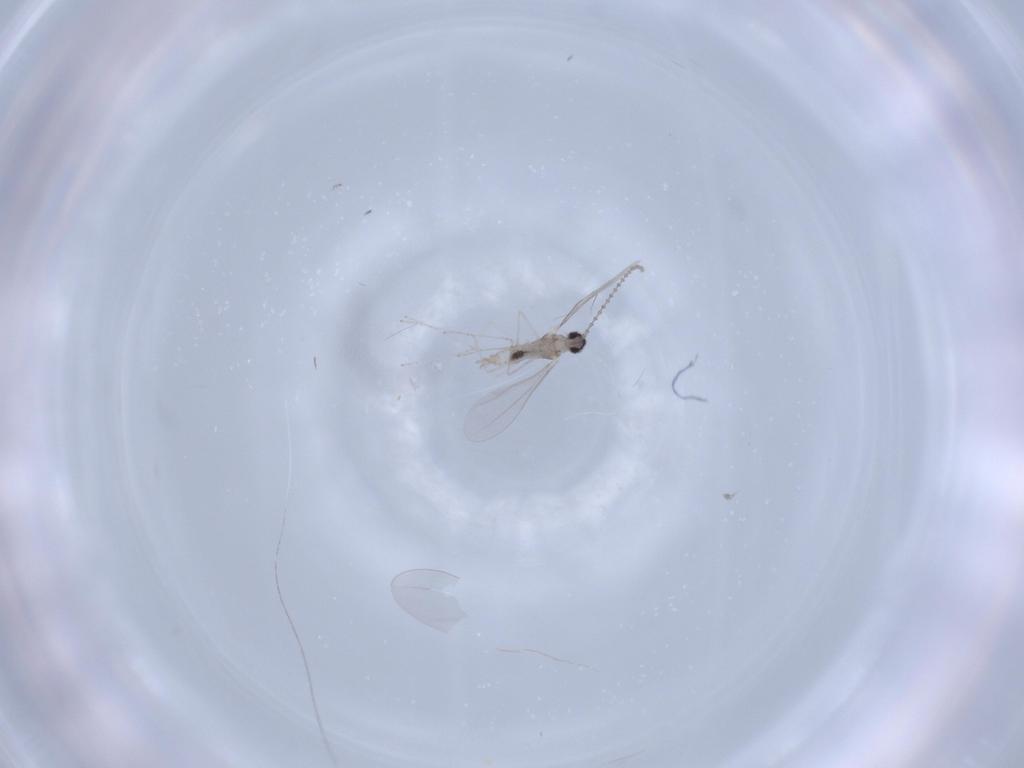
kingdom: Animalia
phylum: Arthropoda
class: Insecta
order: Diptera
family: Cecidomyiidae
